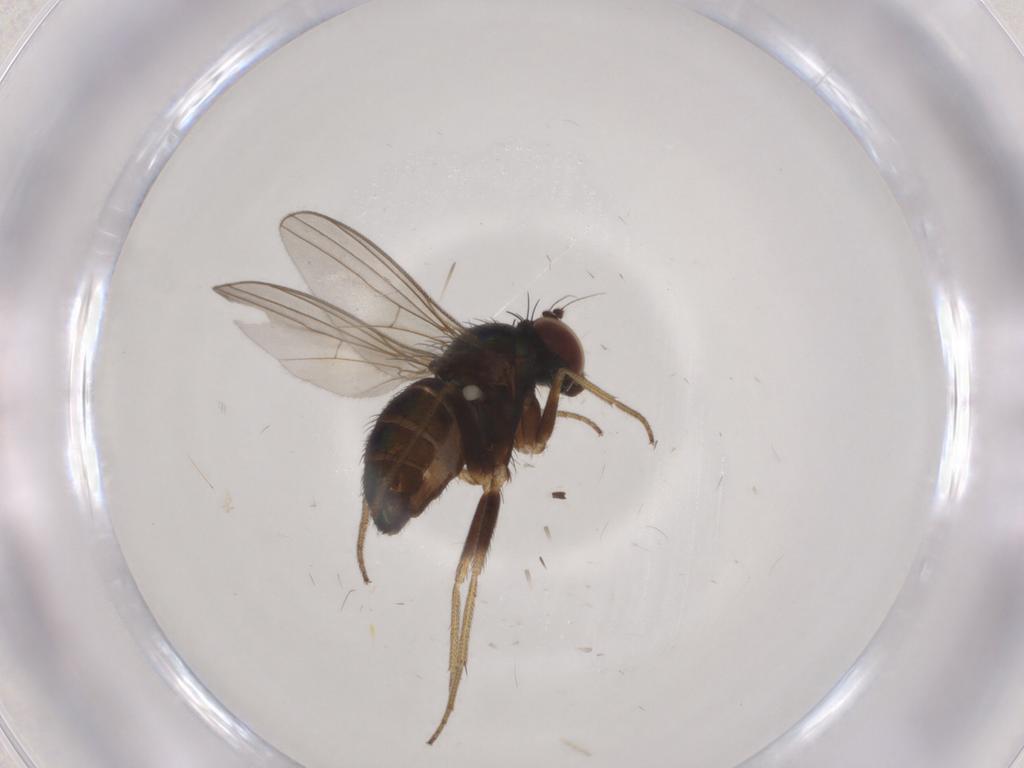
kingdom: Animalia
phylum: Arthropoda
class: Insecta
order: Diptera
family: Dolichopodidae
